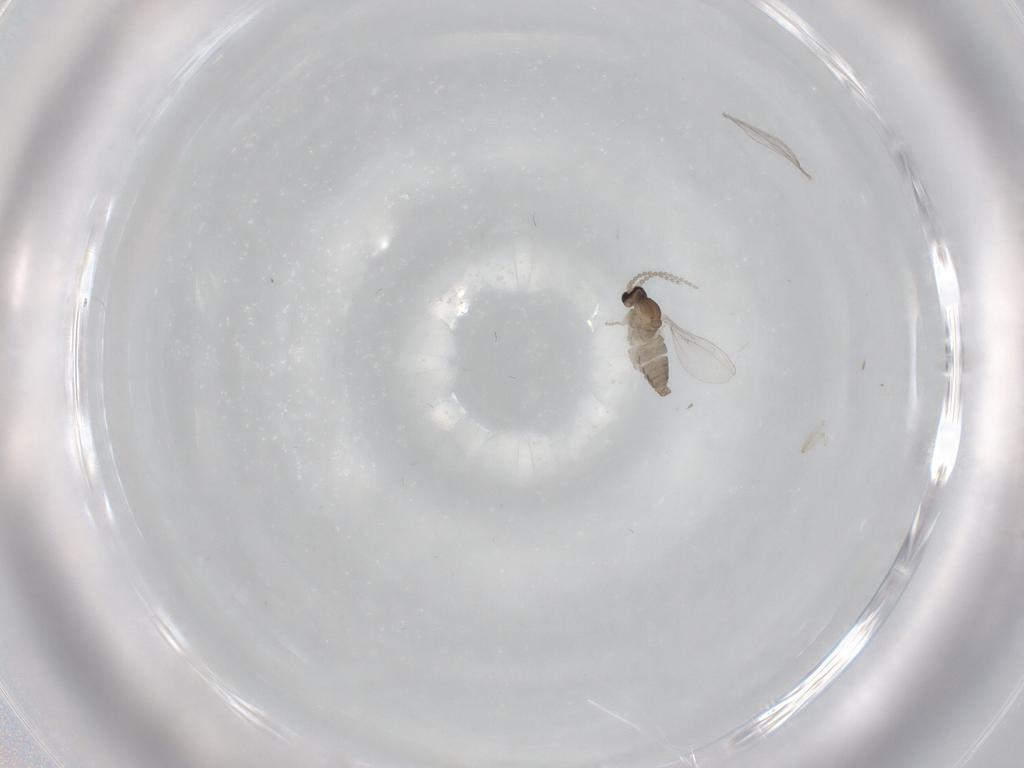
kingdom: Animalia
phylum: Arthropoda
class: Insecta
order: Diptera
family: Cecidomyiidae
